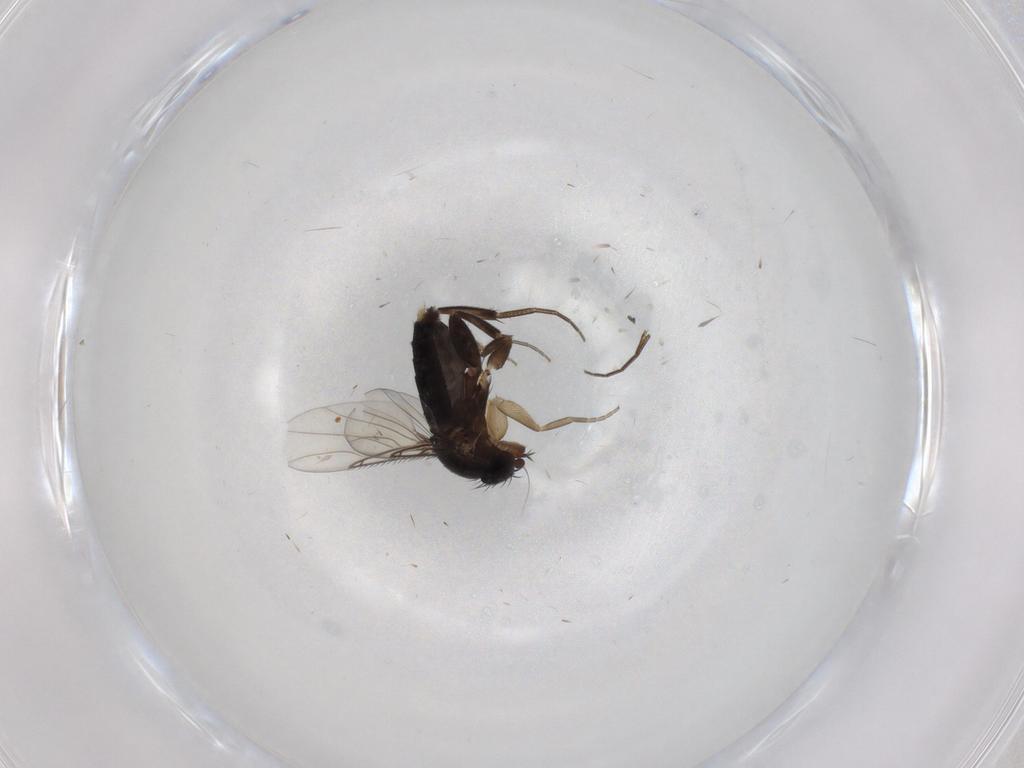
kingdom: Animalia
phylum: Arthropoda
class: Insecta
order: Diptera
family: Phoridae
